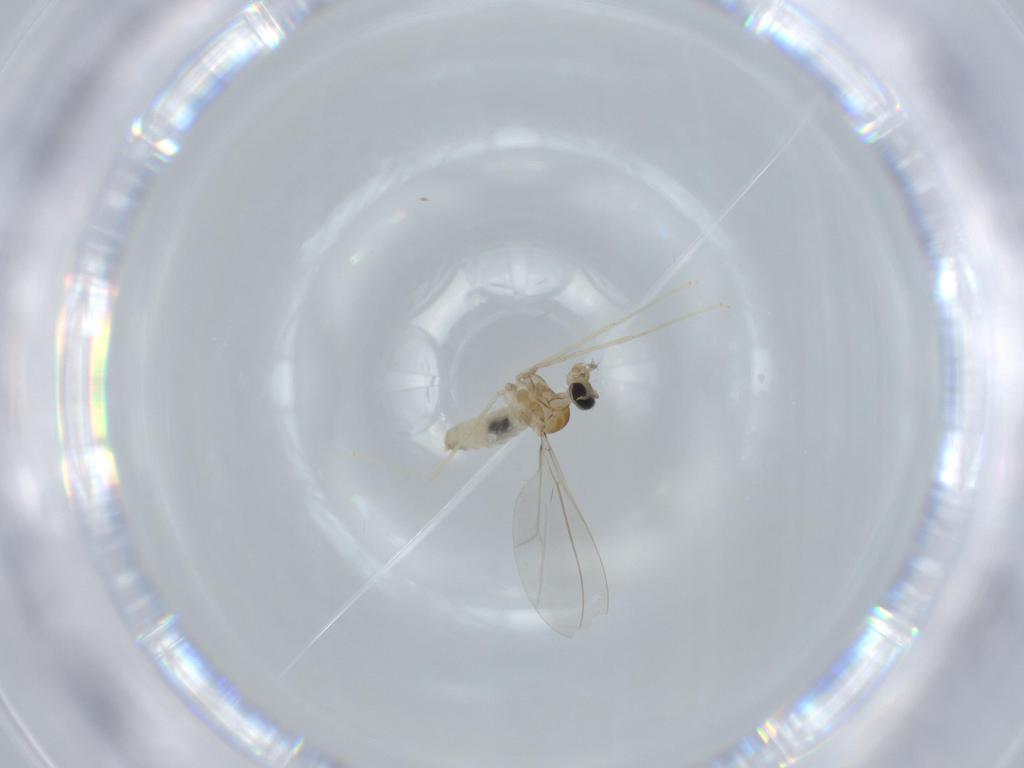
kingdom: Animalia
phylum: Arthropoda
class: Insecta
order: Diptera
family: Cecidomyiidae
